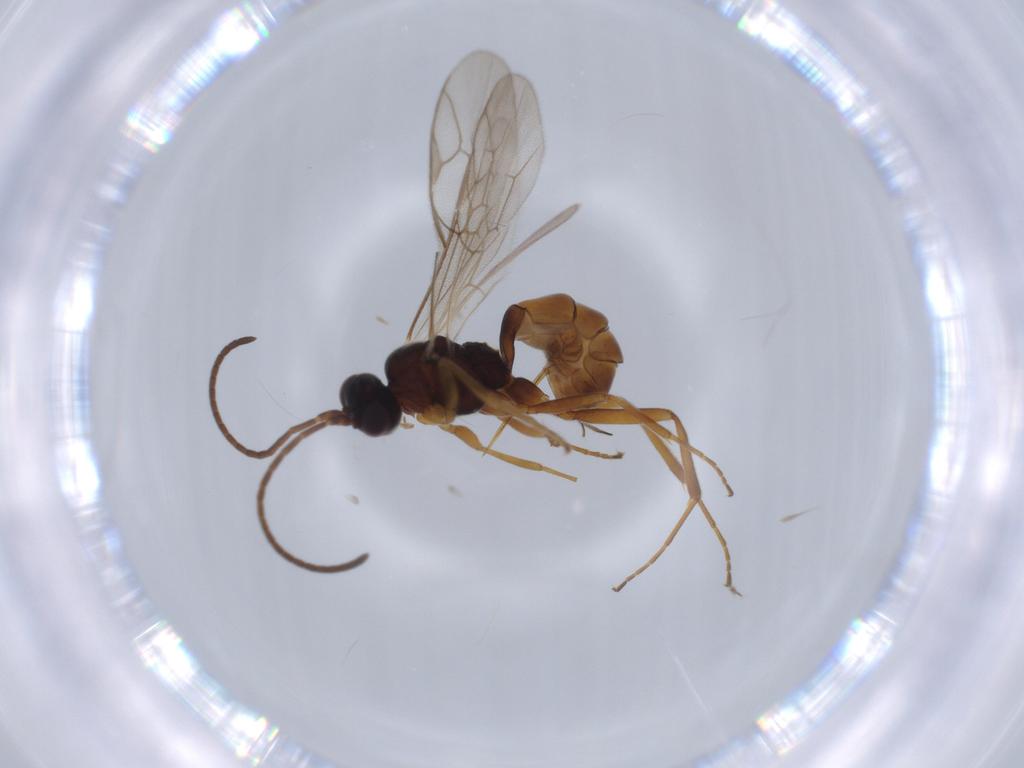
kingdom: Animalia
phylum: Arthropoda
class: Insecta
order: Hymenoptera
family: Ichneumonidae
